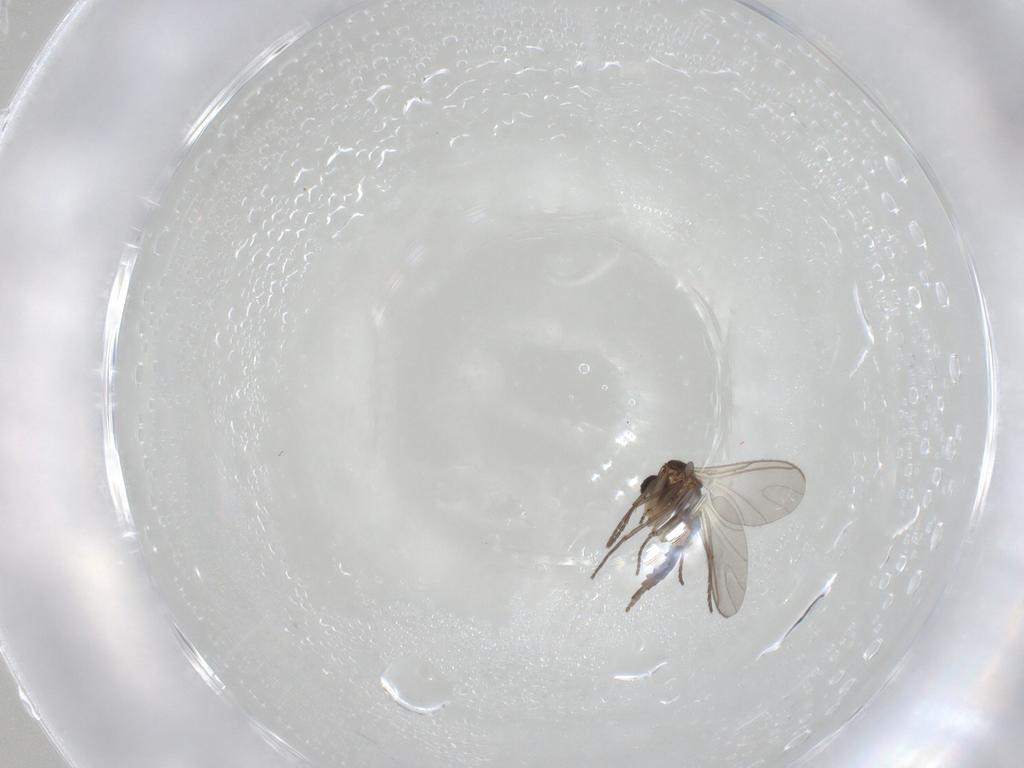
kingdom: Animalia
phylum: Arthropoda
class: Insecta
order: Diptera
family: Sciaridae
